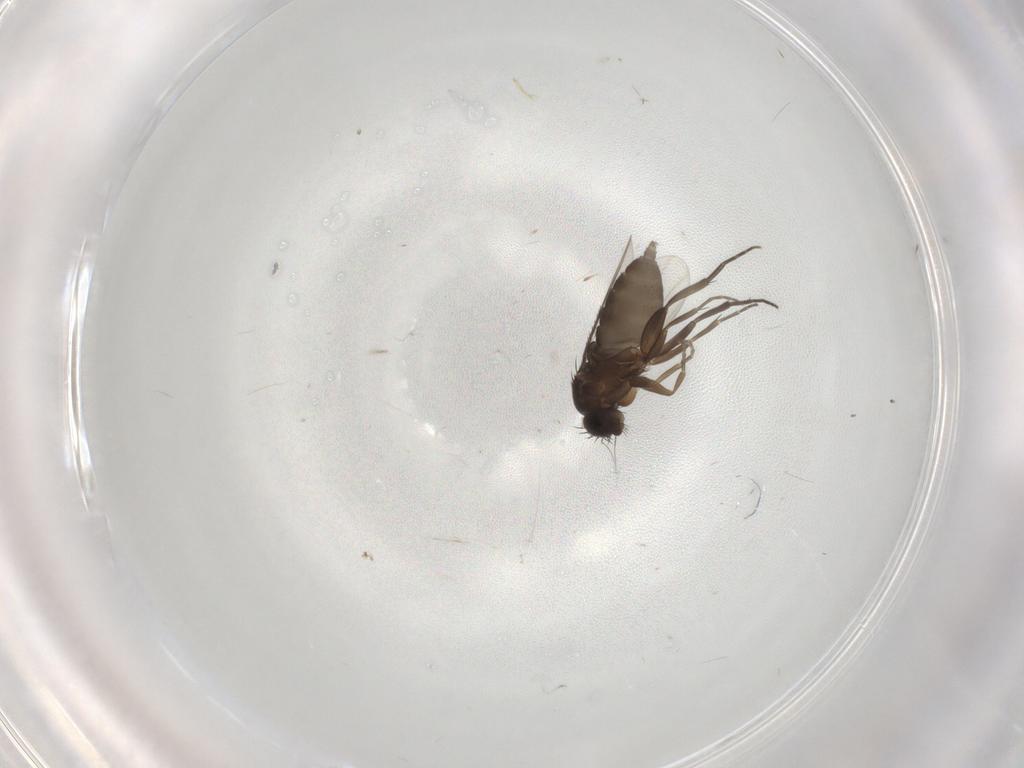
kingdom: Animalia
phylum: Arthropoda
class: Insecta
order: Diptera
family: Phoridae
